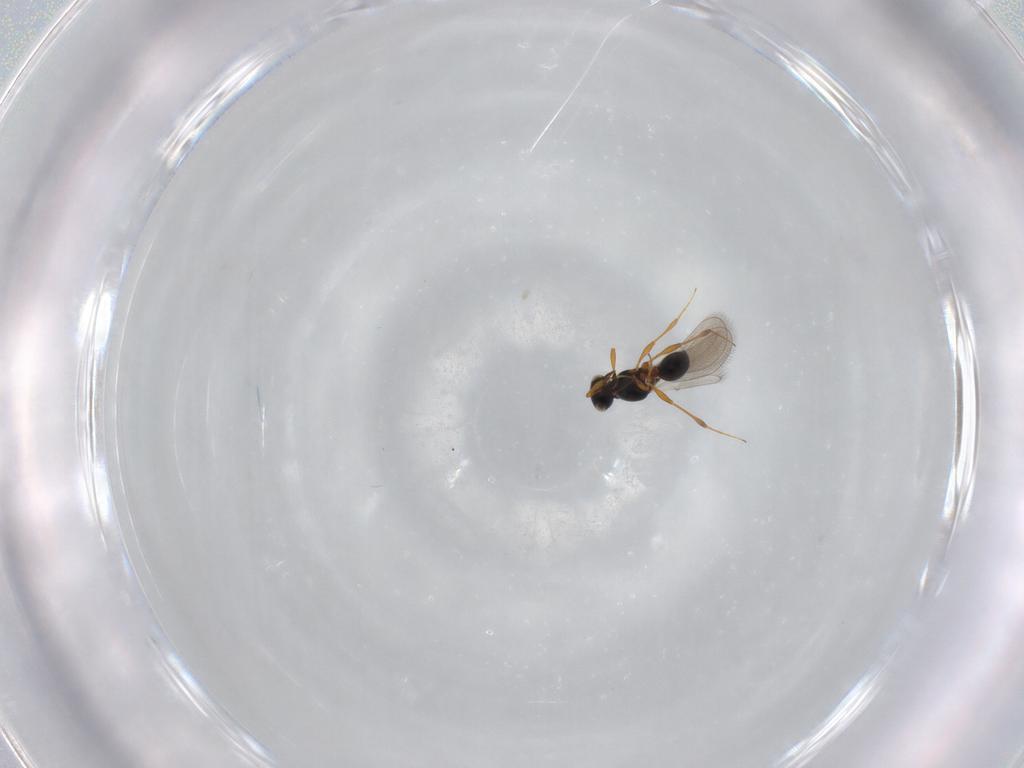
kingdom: Animalia
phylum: Arthropoda
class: Insecta
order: Hymenoptera
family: Platygastridae
